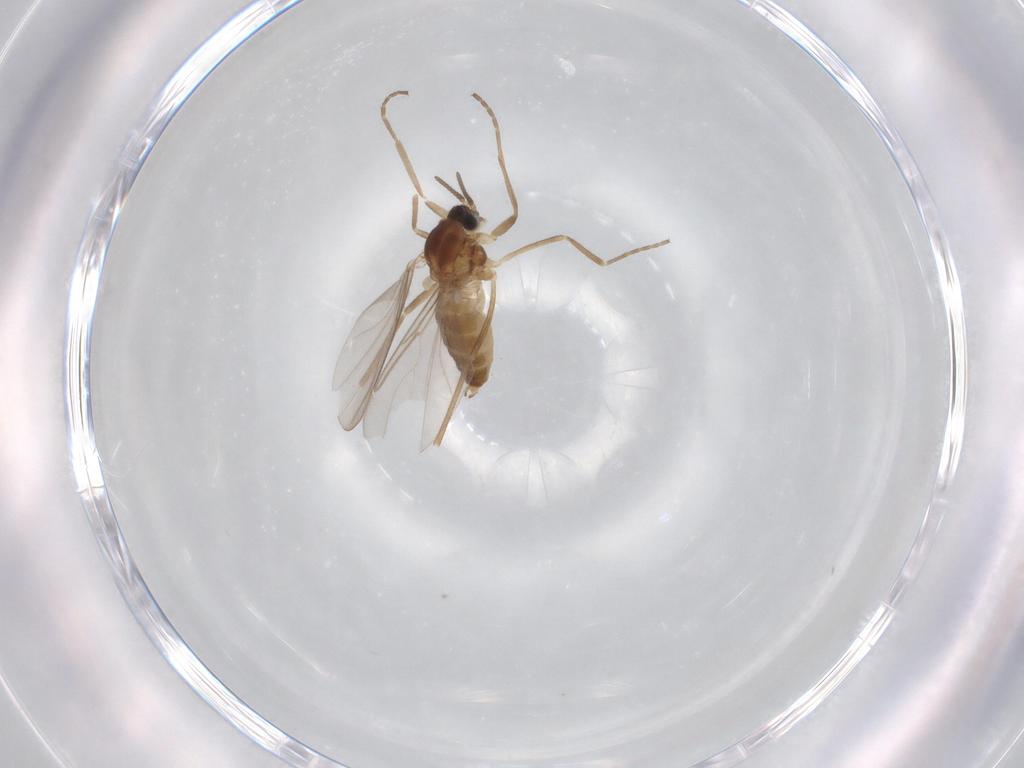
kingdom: Animalia
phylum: Arthropoda
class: Insecta
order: Diptera
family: Cecidomyiidae
